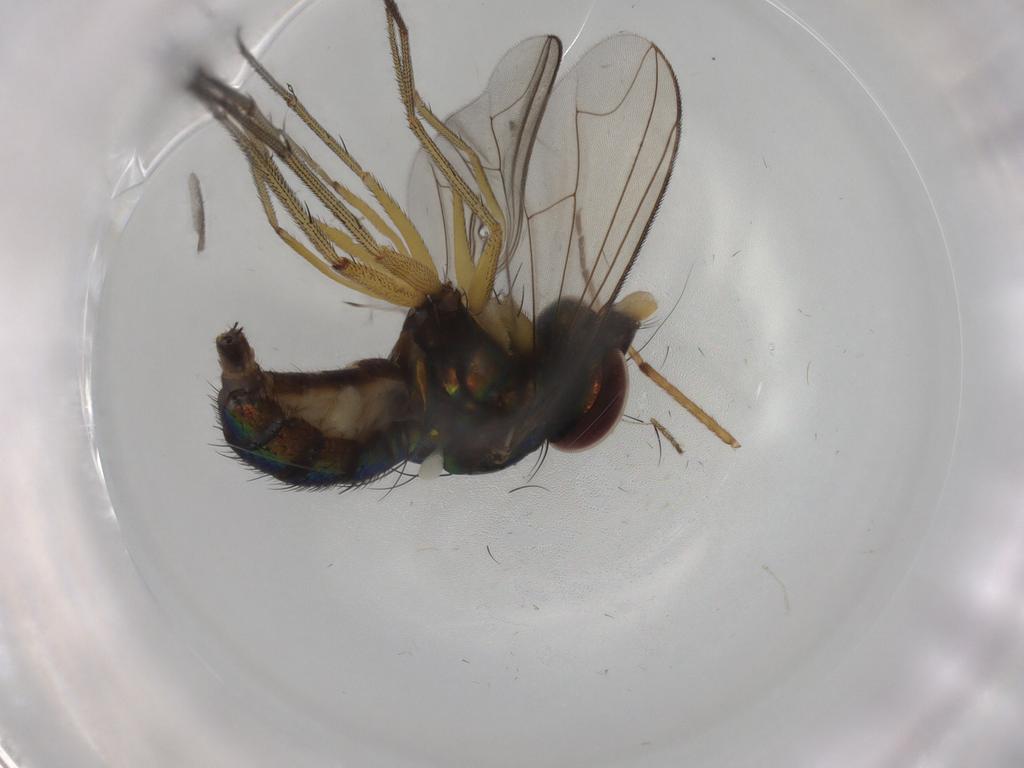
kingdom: Animalia
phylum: Arthropoda
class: Insecta
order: Diptera
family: Dolichopodidae
